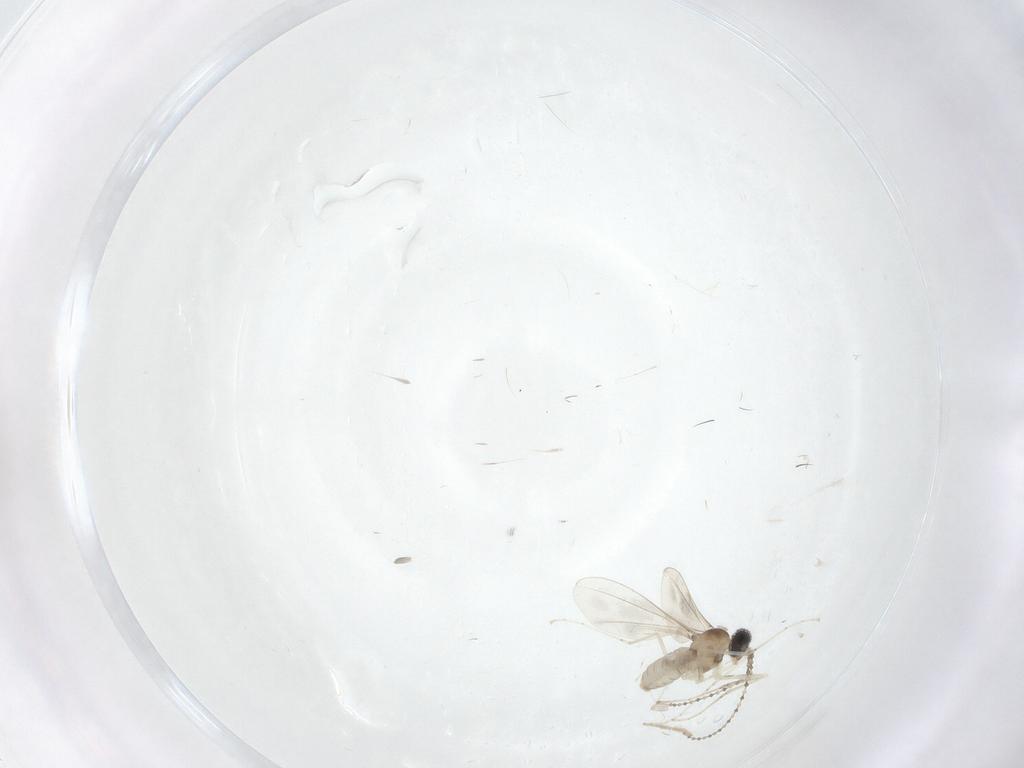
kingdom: Animalia
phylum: Arthropoda
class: Insecta
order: Diptera
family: Cecidomyiidae
